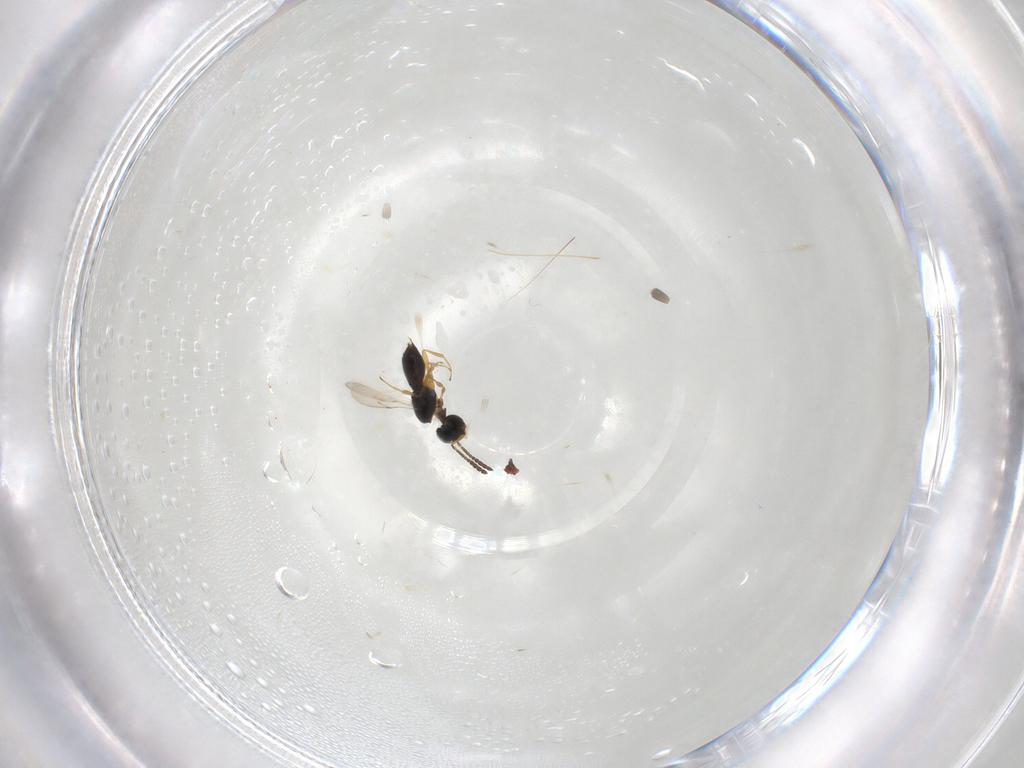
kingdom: Animalia
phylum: Arthropoda
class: Insecta
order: Hymenoptera
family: Scelionidae
